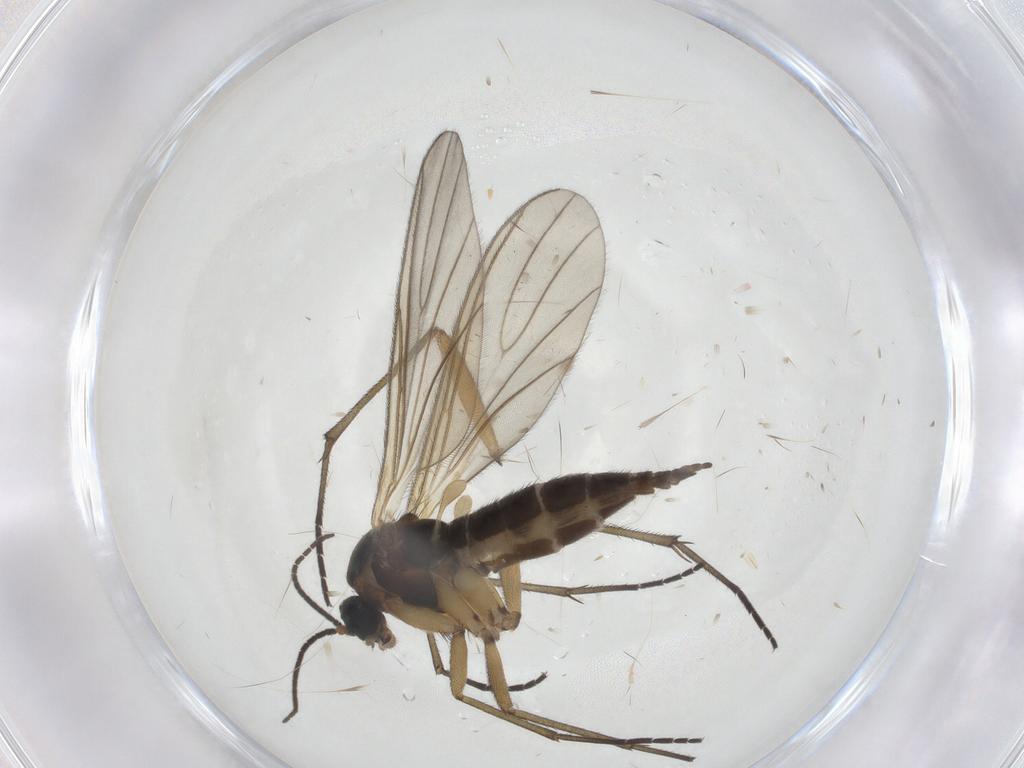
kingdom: Animalia
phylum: Arthropoda
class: Insecta
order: Diptera
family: Sciaridae
